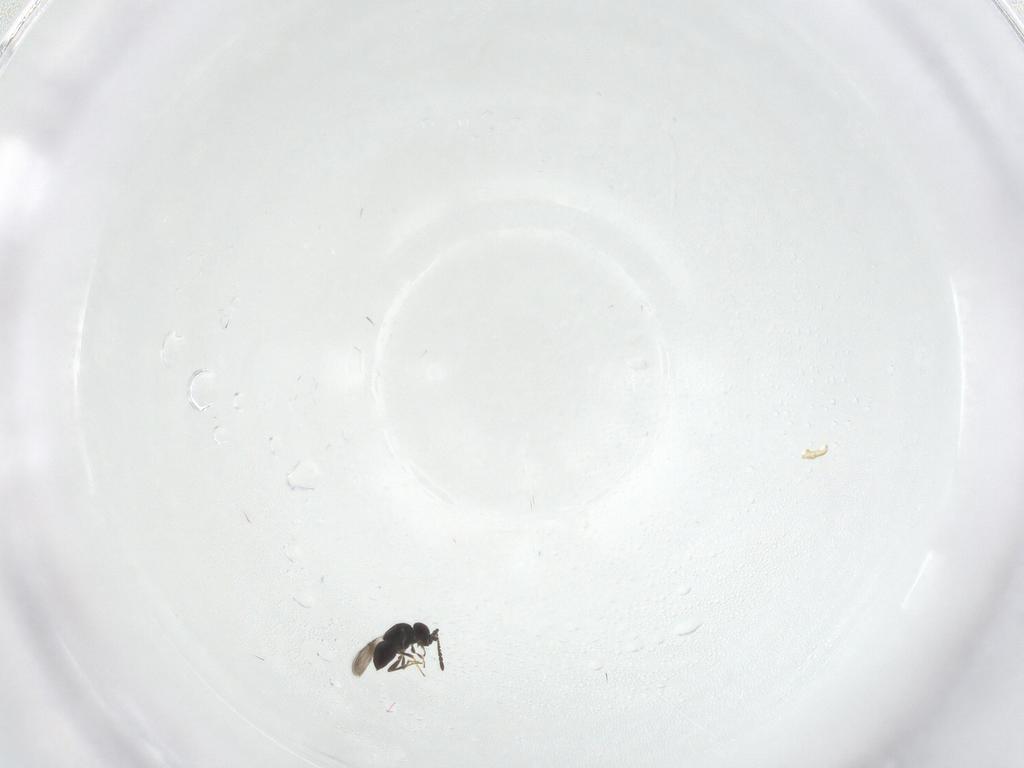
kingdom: Animalia
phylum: Arthropoda
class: Insecta
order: Hymenoptera
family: Ceraphronidae
